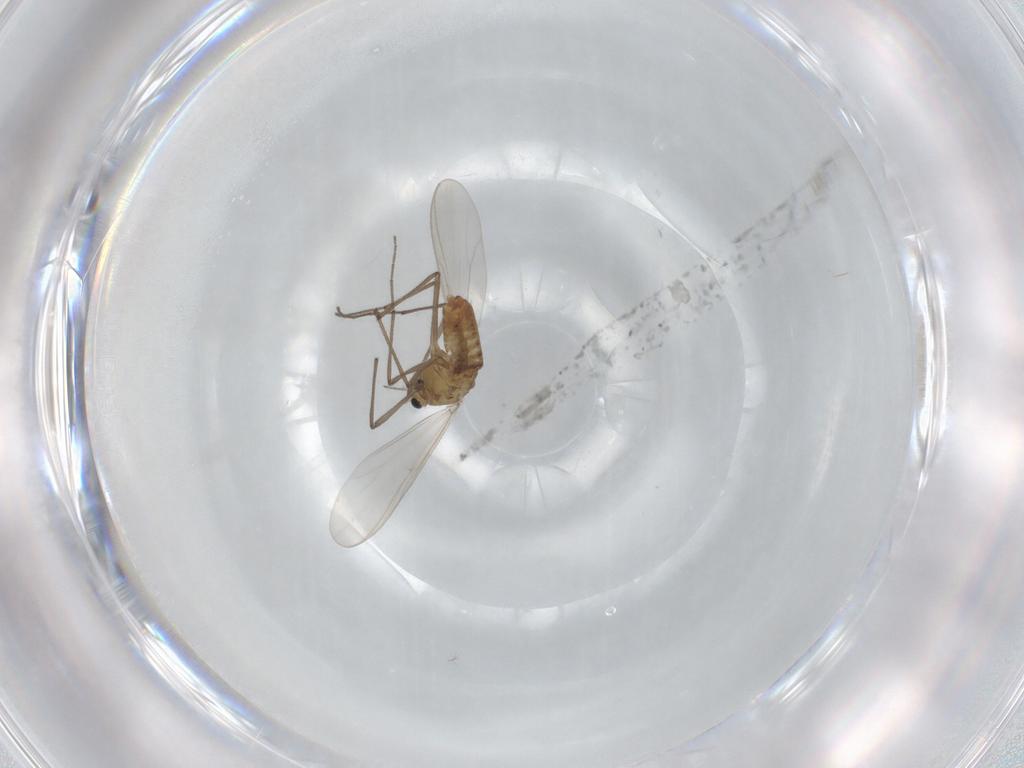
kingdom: Animalia
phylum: Arthropoda
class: Insecta
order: Diptera
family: Chironomidae
